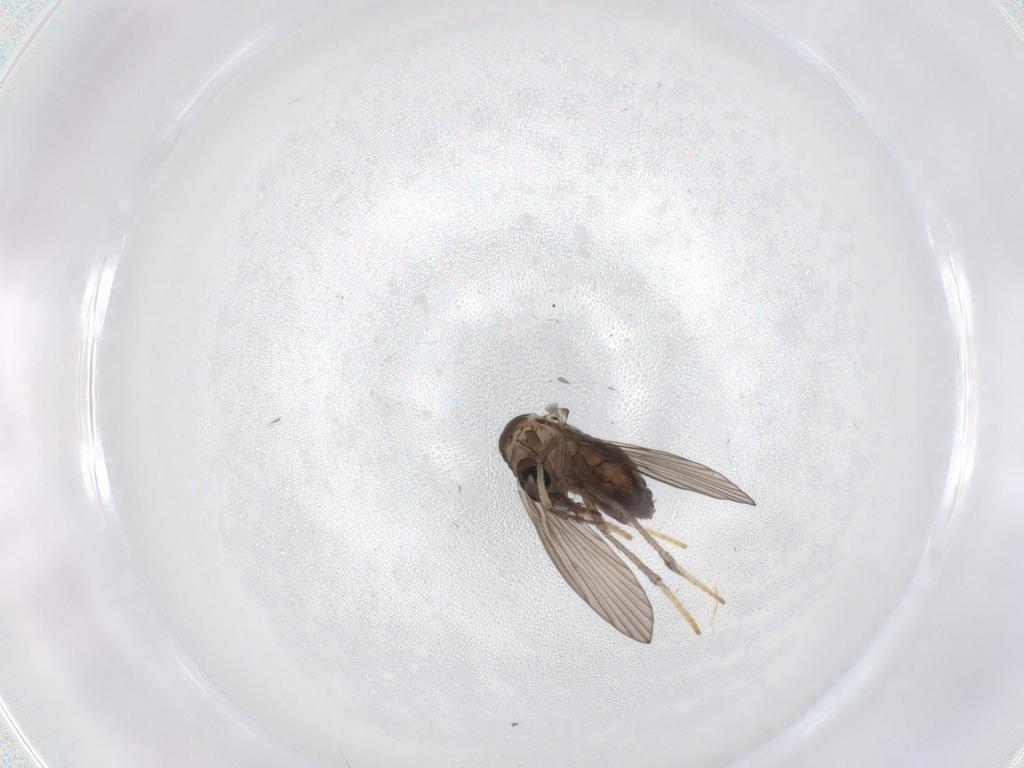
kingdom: Animalia
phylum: Arthropoda
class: Insecta
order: Diptera
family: Psychodidae
